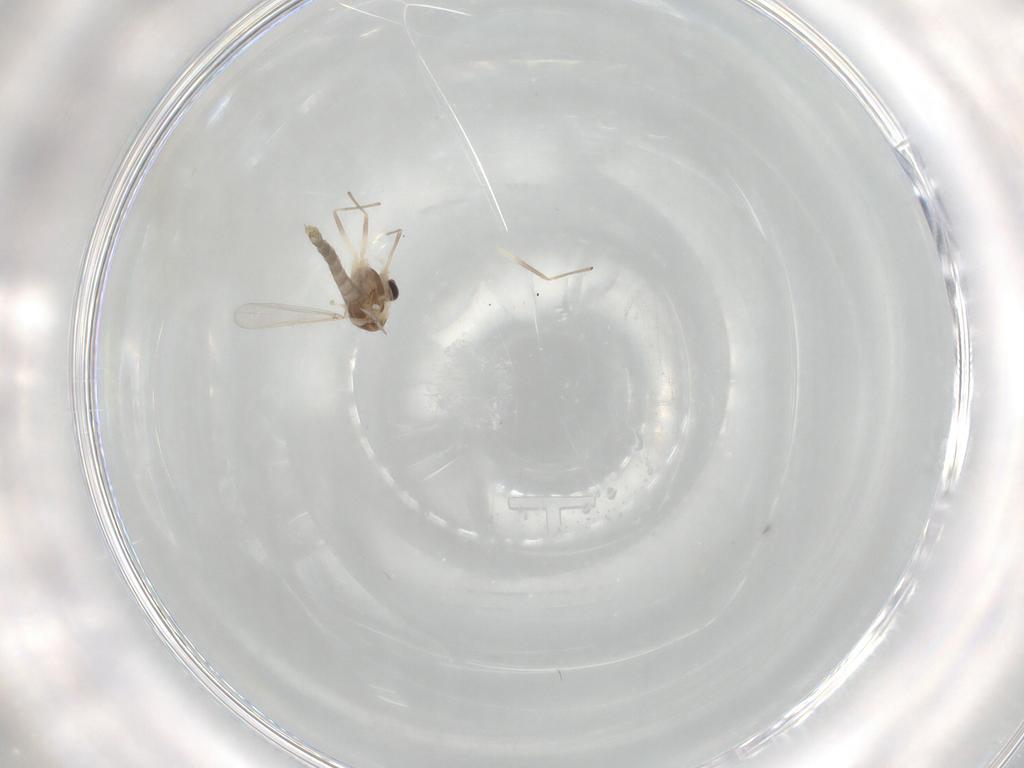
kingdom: Animalia
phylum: Arthropoda
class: Insecta
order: Diptera
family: Chironomidae
